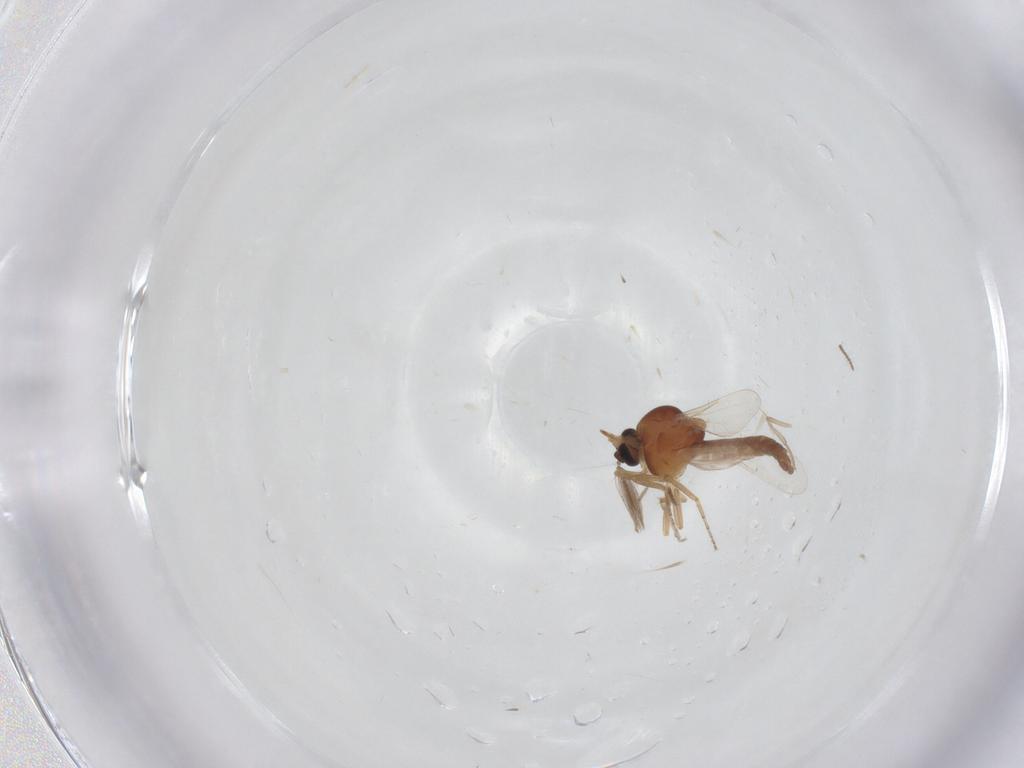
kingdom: Animalia
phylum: Arthropoda
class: Insecta
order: Diptera
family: Ceratopogonidae
